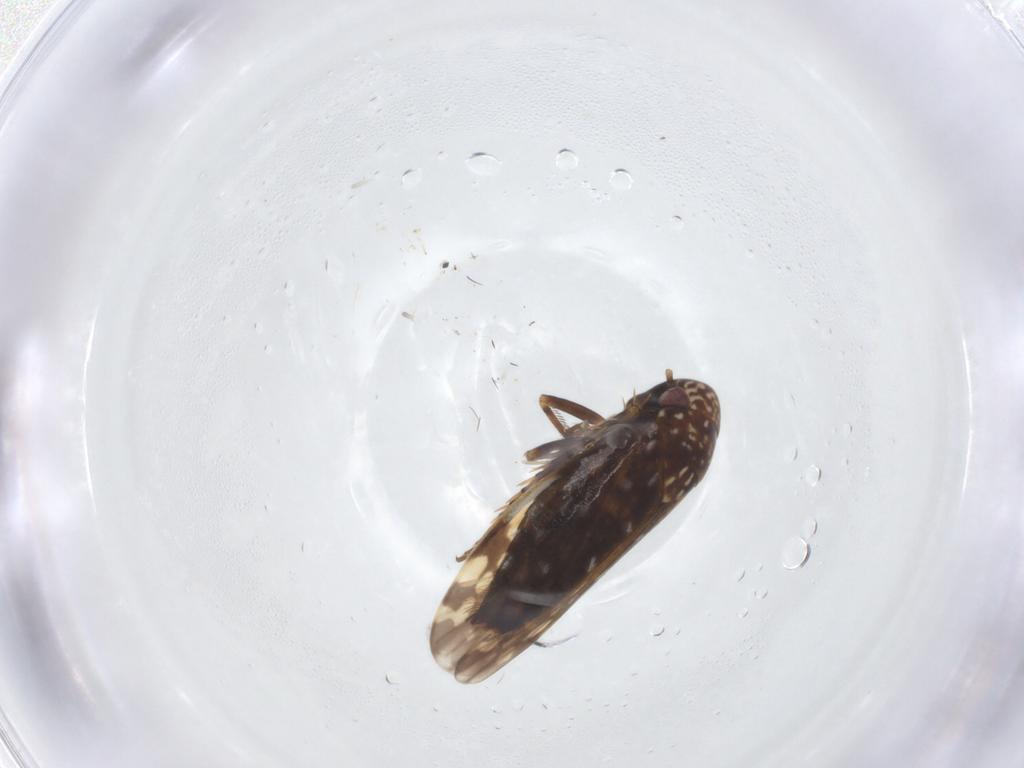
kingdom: Animalia
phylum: Arthropoda
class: Insecta
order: Hemiptera
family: Cicadellidae
